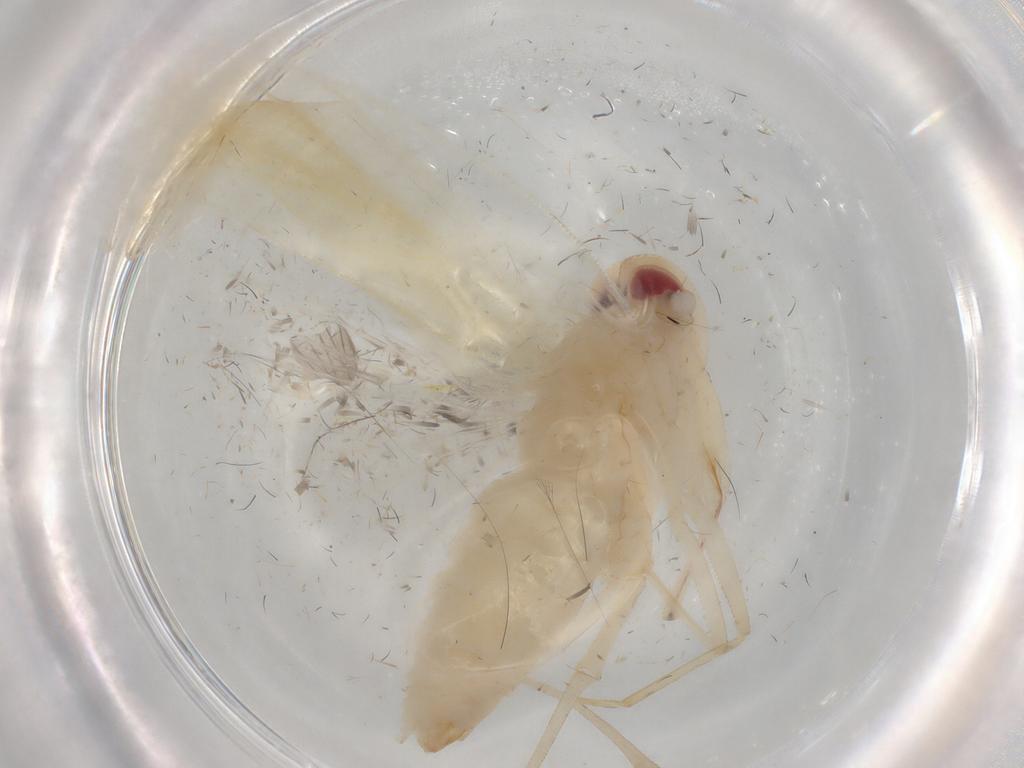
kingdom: Animalia
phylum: Arthropoda
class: Insecta
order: Hemiptera
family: Derbidae
